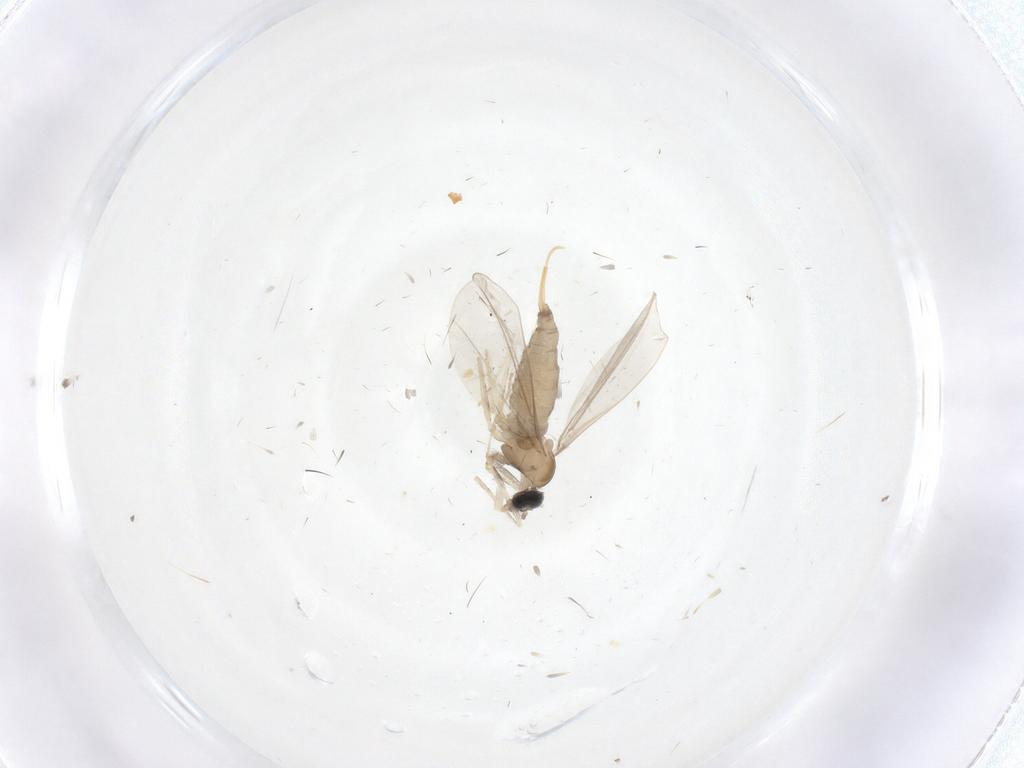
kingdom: Animalia
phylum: Arthropoda
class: Insecta
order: Diptera
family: Cecidomyiidae
